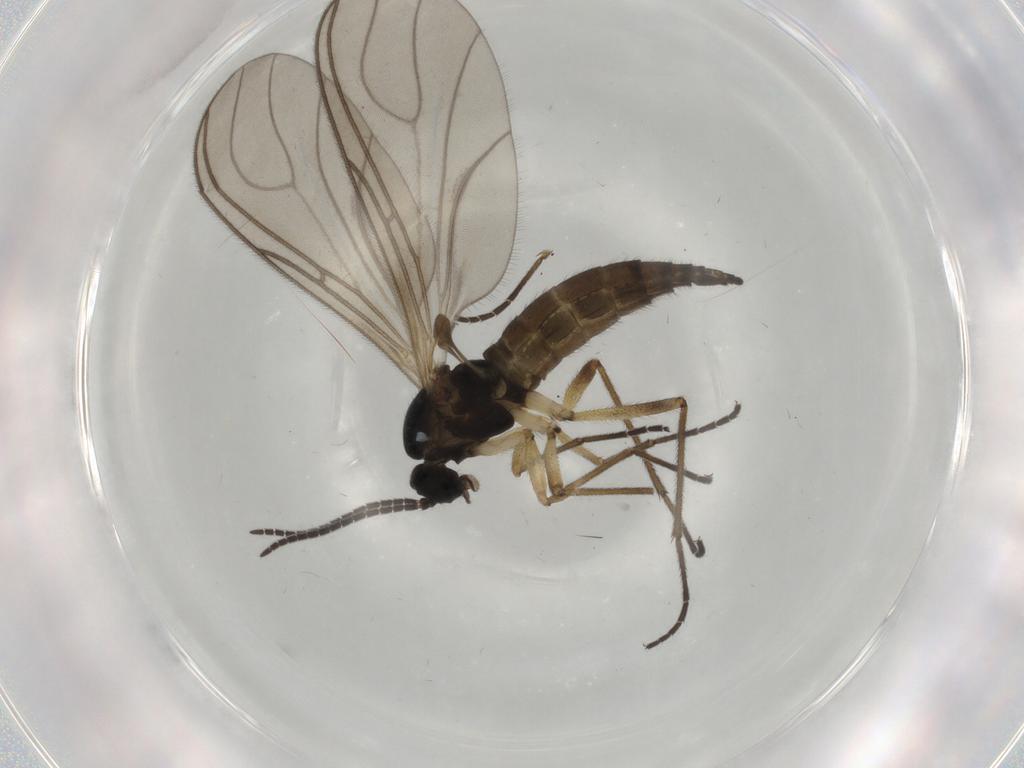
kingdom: Animalia
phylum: Arthropoda
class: Insecta
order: Diptera
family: Sciaridae
